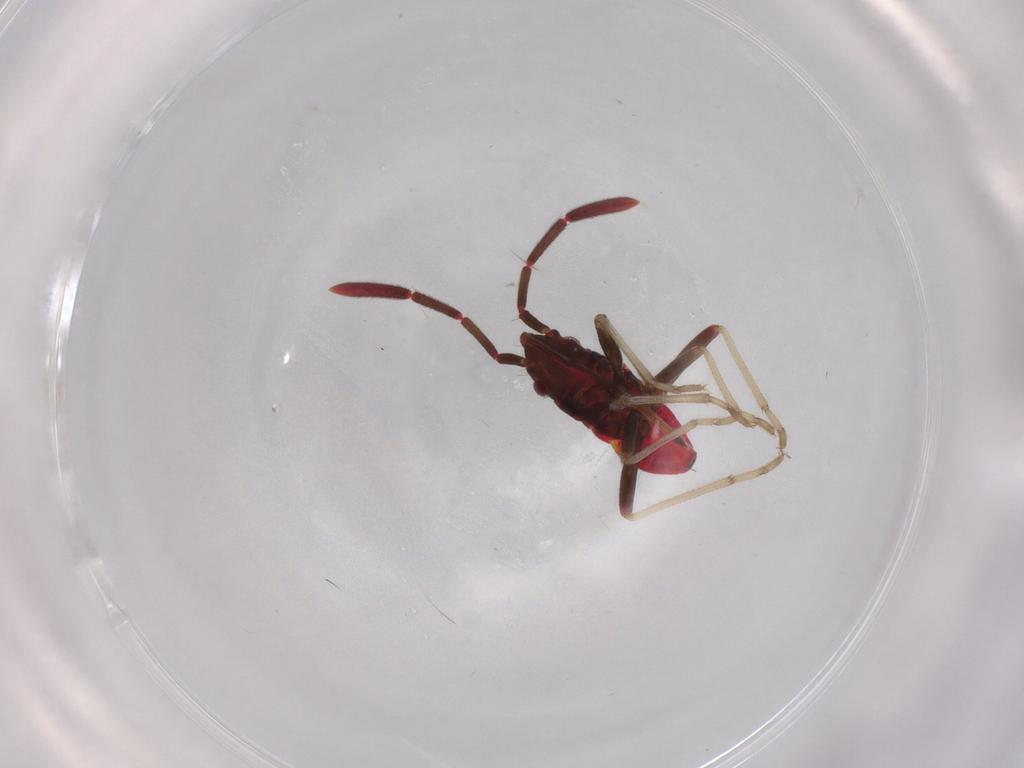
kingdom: Animalia
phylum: Arthropoda
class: Insecta
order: Hemiptera
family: Rhyparochromidae
